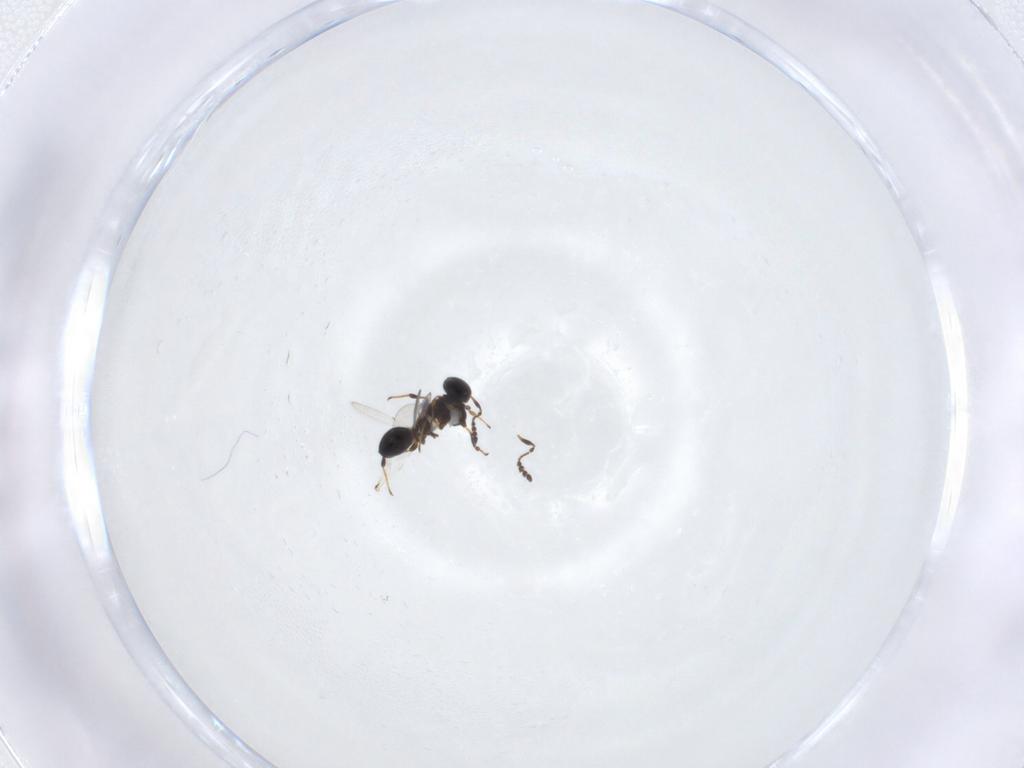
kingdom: Animalia
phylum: Arthropoda
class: Insecta
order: Hymenoptera
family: Platygastridae
